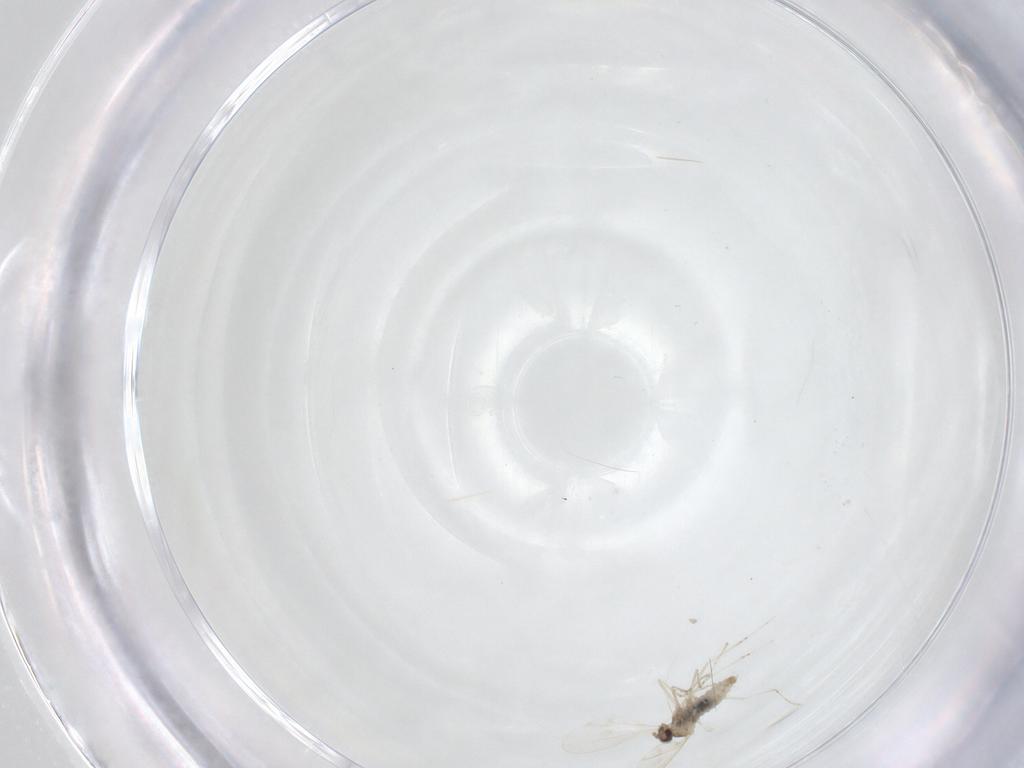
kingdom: Animalia
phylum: Arthropoda
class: Insecta
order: Diptera
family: Cecidomyiidae
